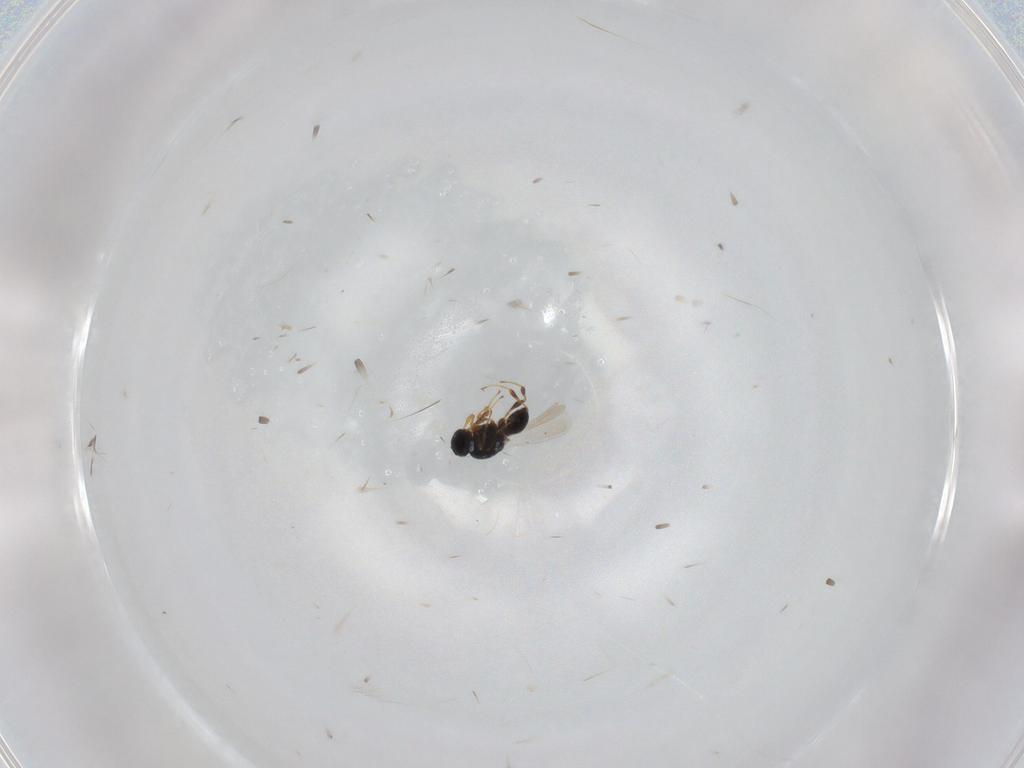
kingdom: Animalia
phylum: Arthropoda
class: Insecta
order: Hymenoptera
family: Platygastridae
